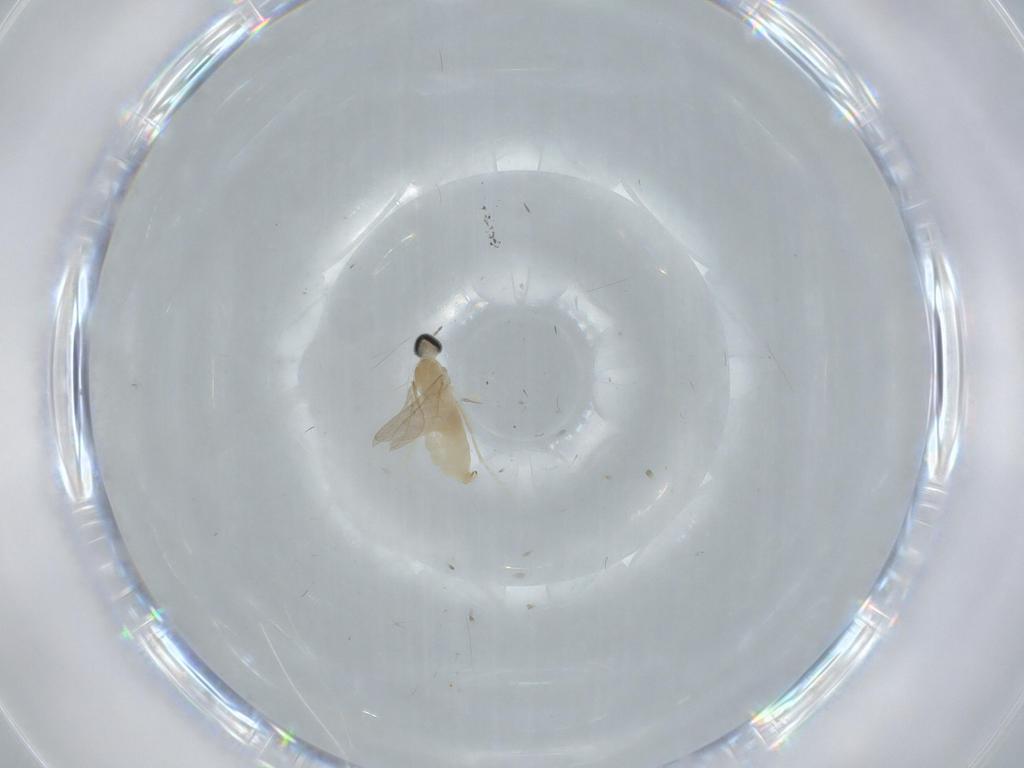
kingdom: Animalia
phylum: Arthropoda
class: Insecta
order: Diptera
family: Cecidomyiidae
